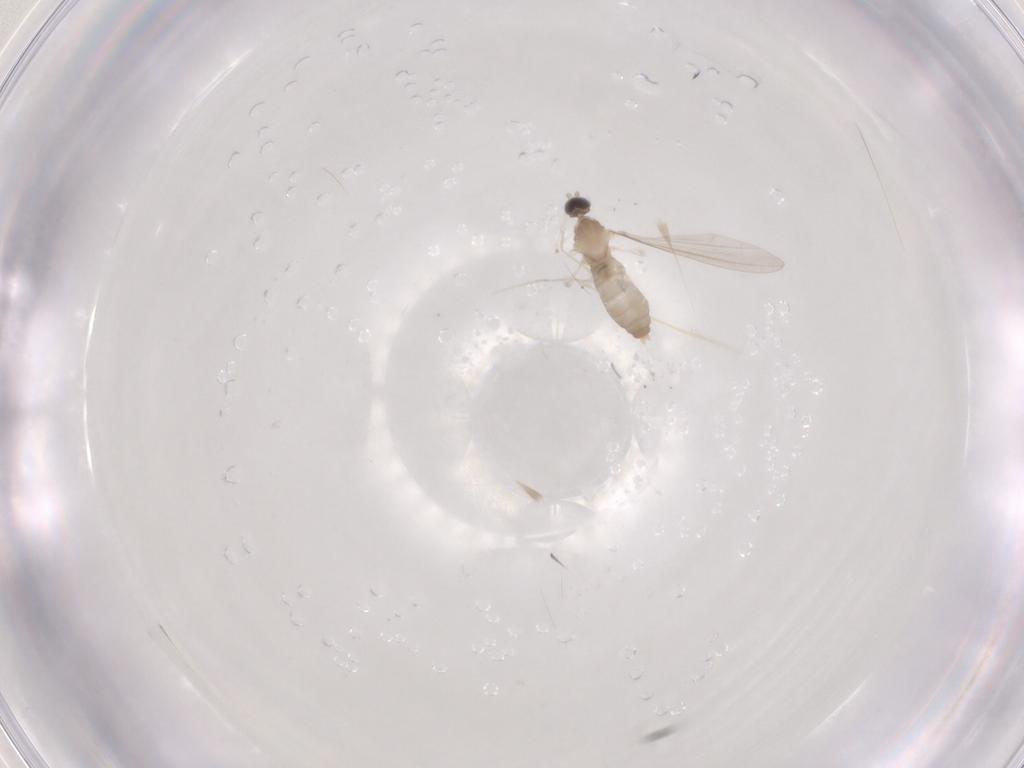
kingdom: Animalia
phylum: Arthropoda
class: Insecta
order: Diptera
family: Cecidomyiidae
